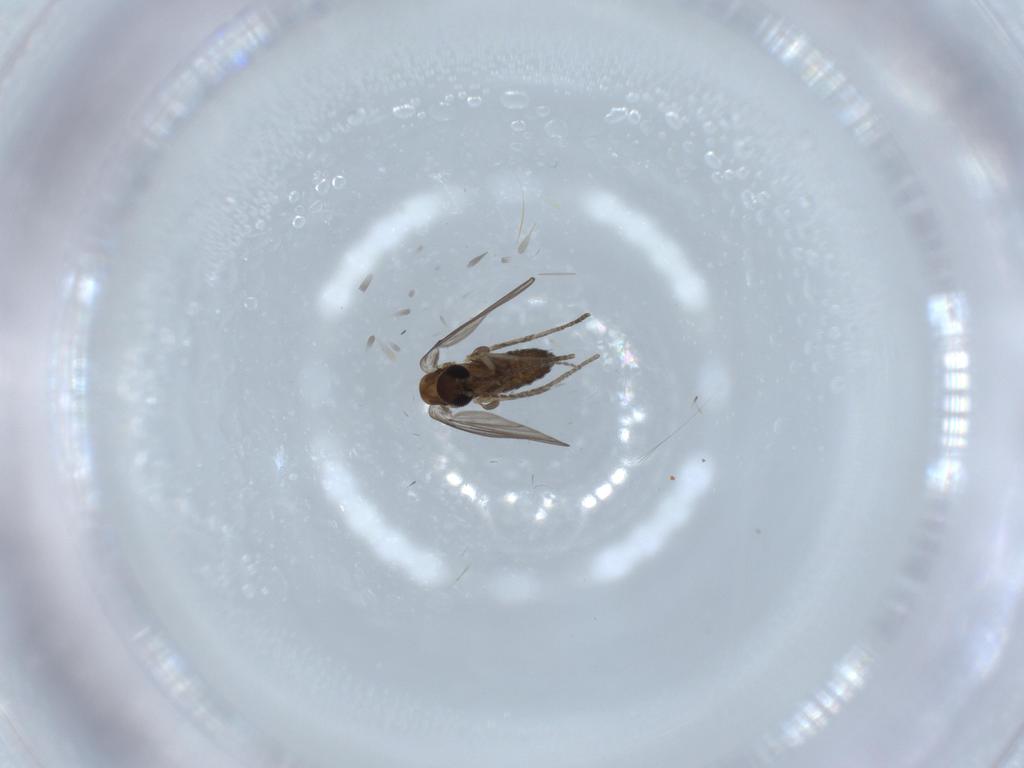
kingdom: Animalia
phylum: Arthropoda
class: Insecta
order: Diptera
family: Psychodidae
